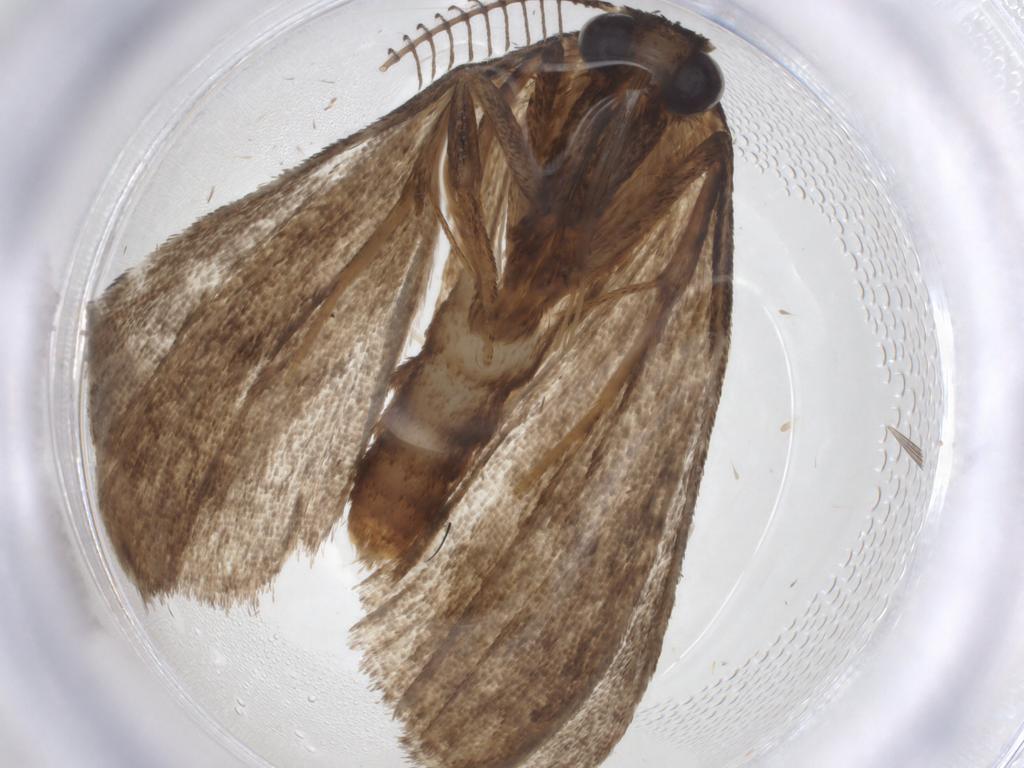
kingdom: Animalia
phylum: Arthropoda
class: Insecta
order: Lepidoptera
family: Erebidae
